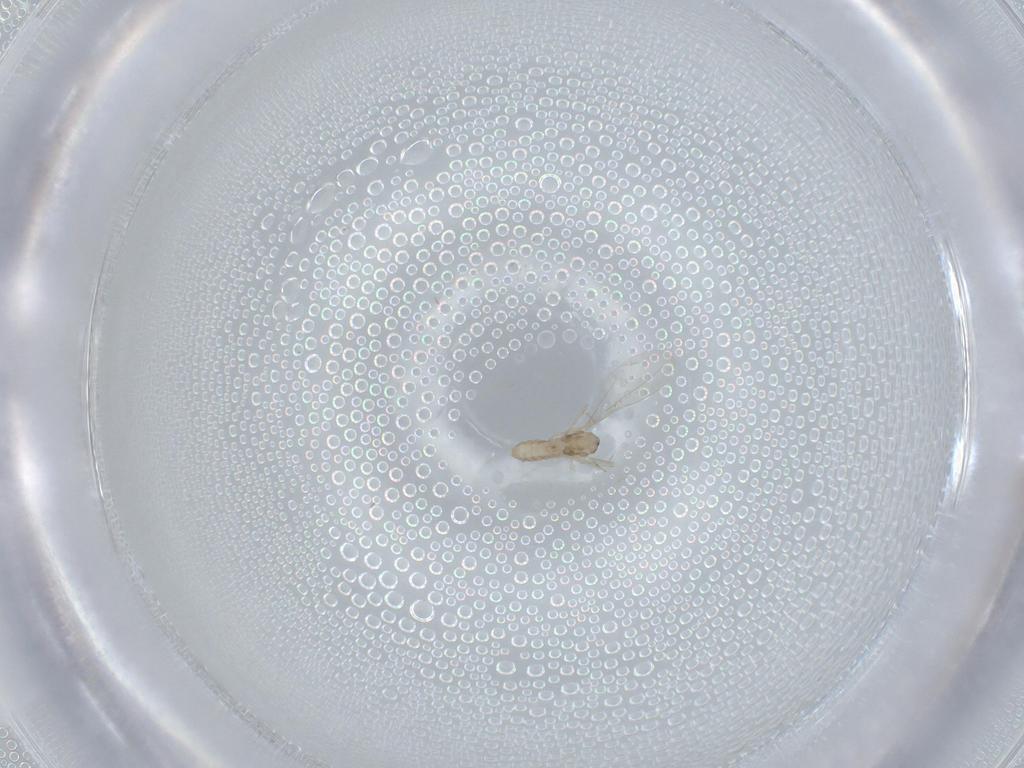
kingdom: Animalia
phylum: Arthropoda
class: Insecta
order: Diptera
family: Cecidomyiidae
